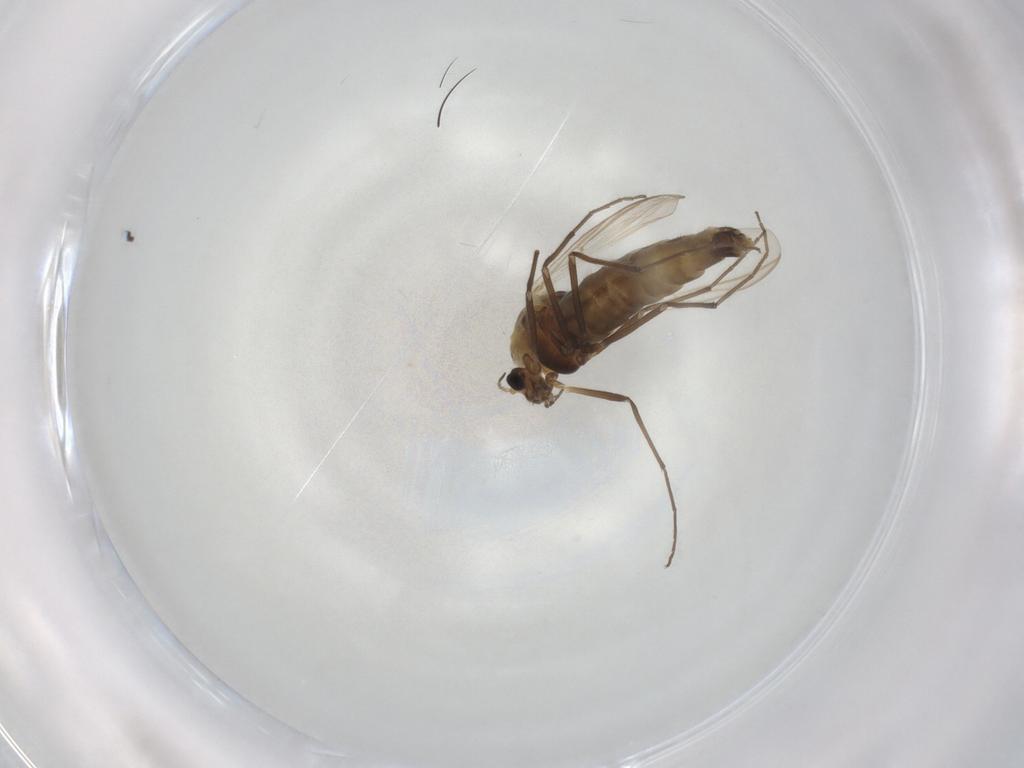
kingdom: Animalia
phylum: Arthropoda
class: Insecta
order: Diptera
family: Chironomidae
